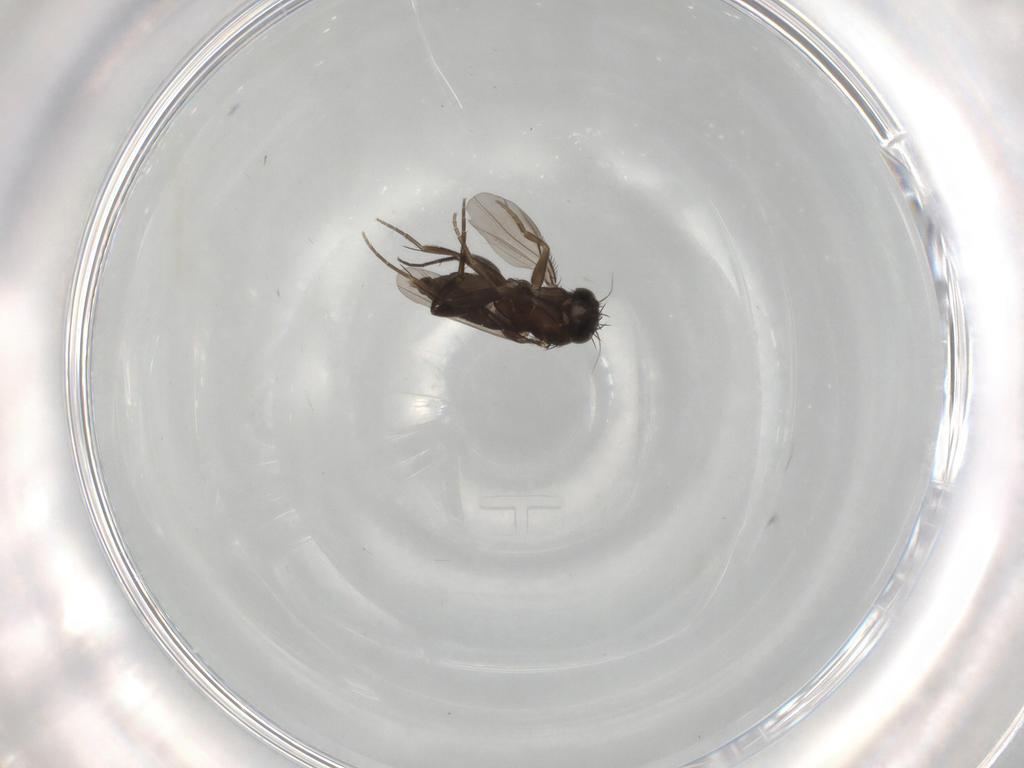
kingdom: Animalia
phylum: Arthropoda
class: Insecta
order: Diptera
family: Phoridae
